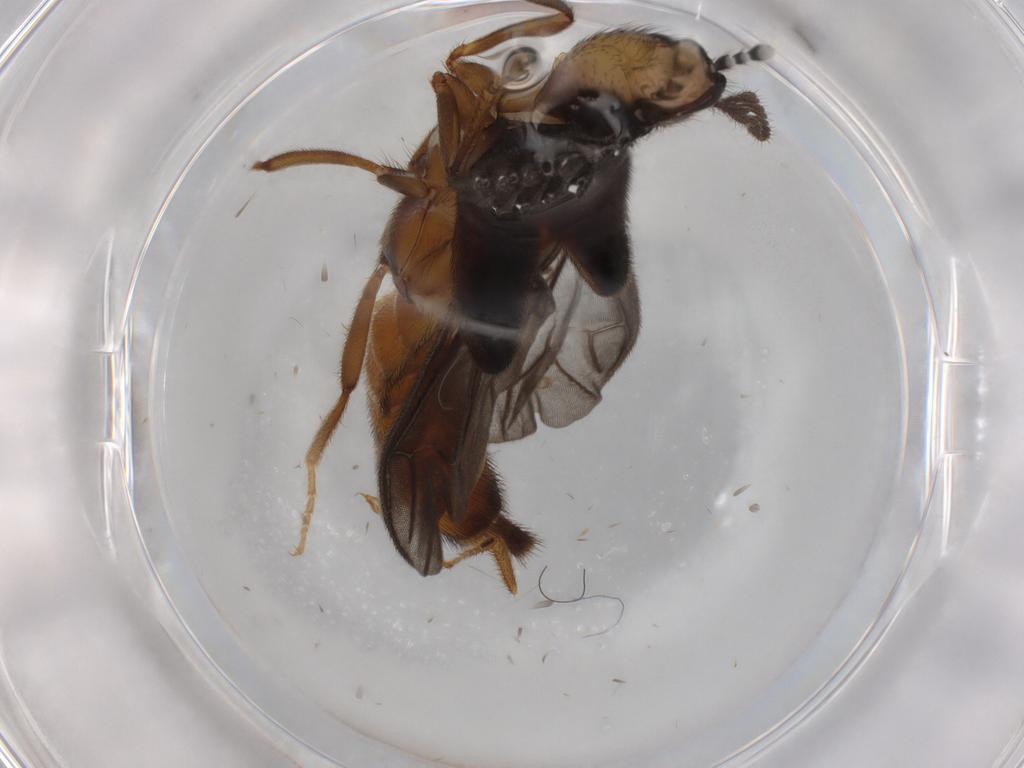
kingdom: Animalia
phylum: Arthropoda
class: Insecta
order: Coleoptera
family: Phengodidae
